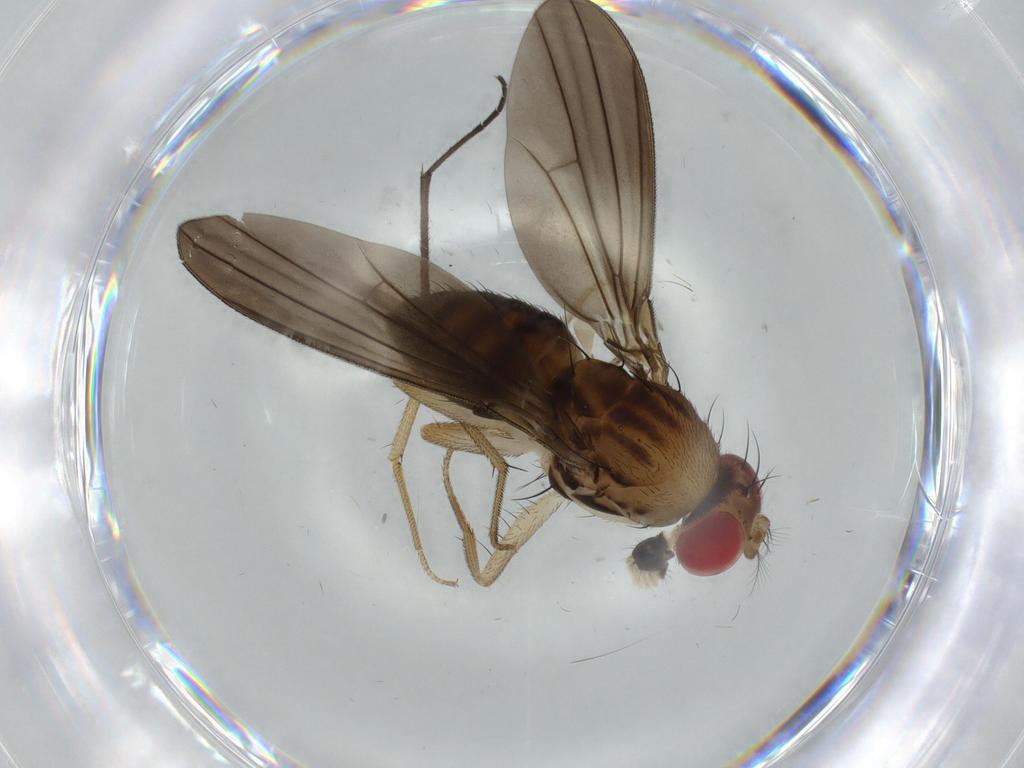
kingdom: Animalia
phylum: Arthropoda
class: Insecta
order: Diptera
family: Drosophilidae
